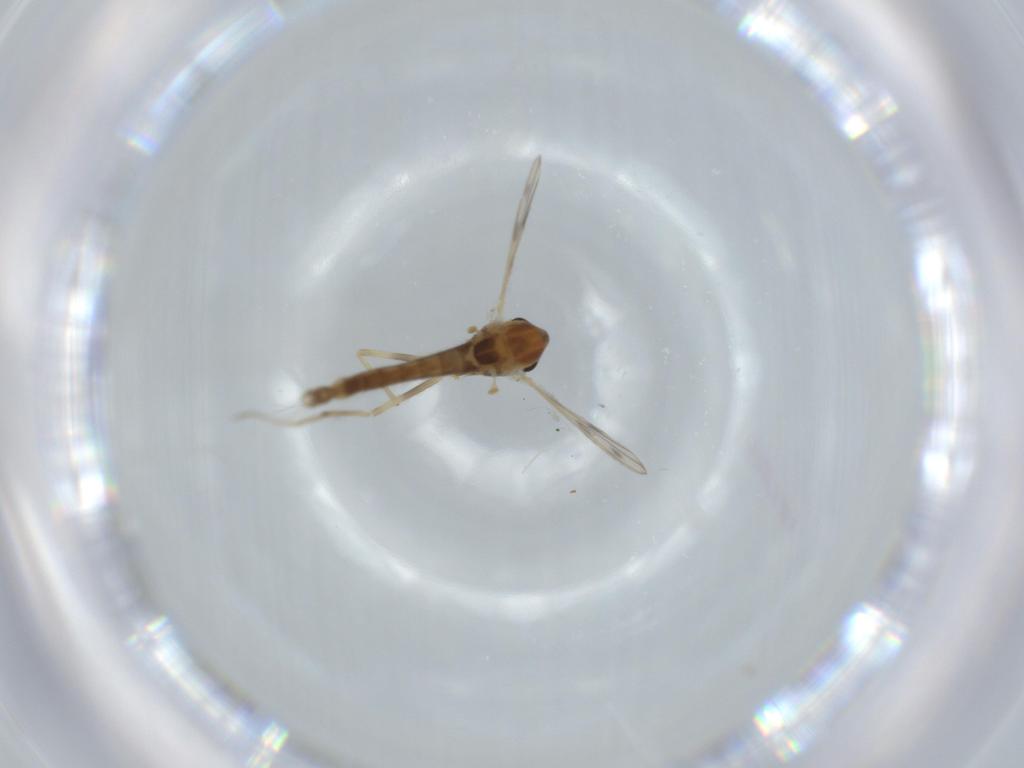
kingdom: Animalia
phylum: Arthropoda
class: Insecta
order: Diptera
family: Chironomidae
